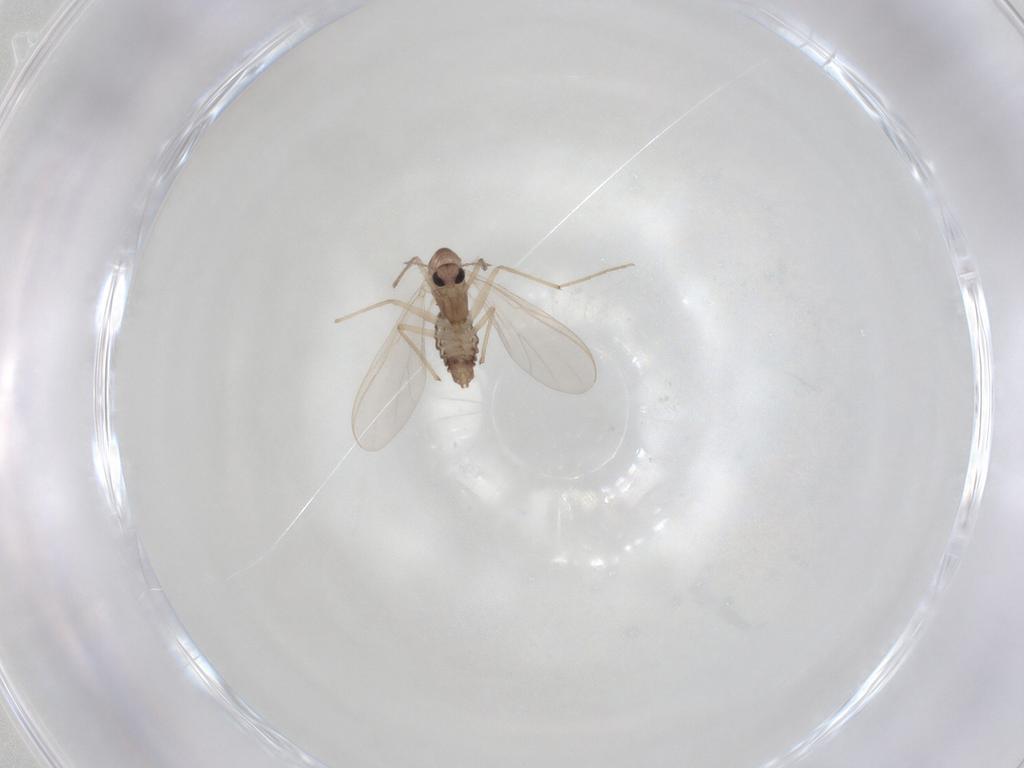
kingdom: Animalia
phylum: Arthropoda
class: Insecta
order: Diptera
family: Chironomidae
